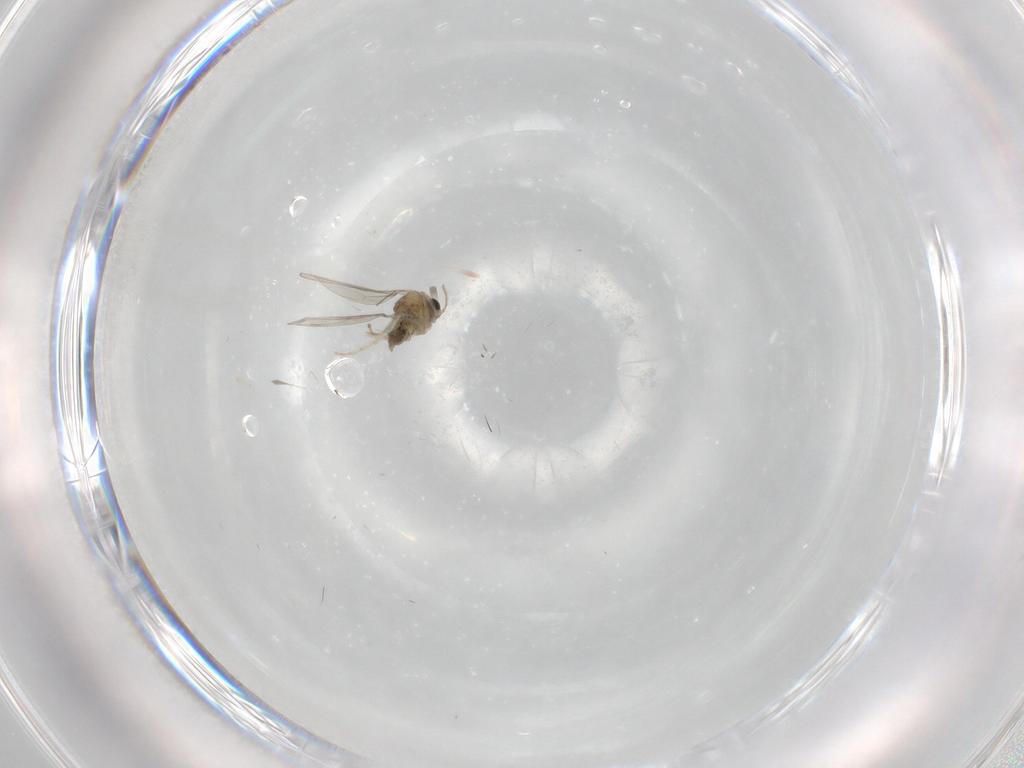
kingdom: Animalia
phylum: Arthropoda
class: Insecta
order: Diptera
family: Cecidomyiidae
